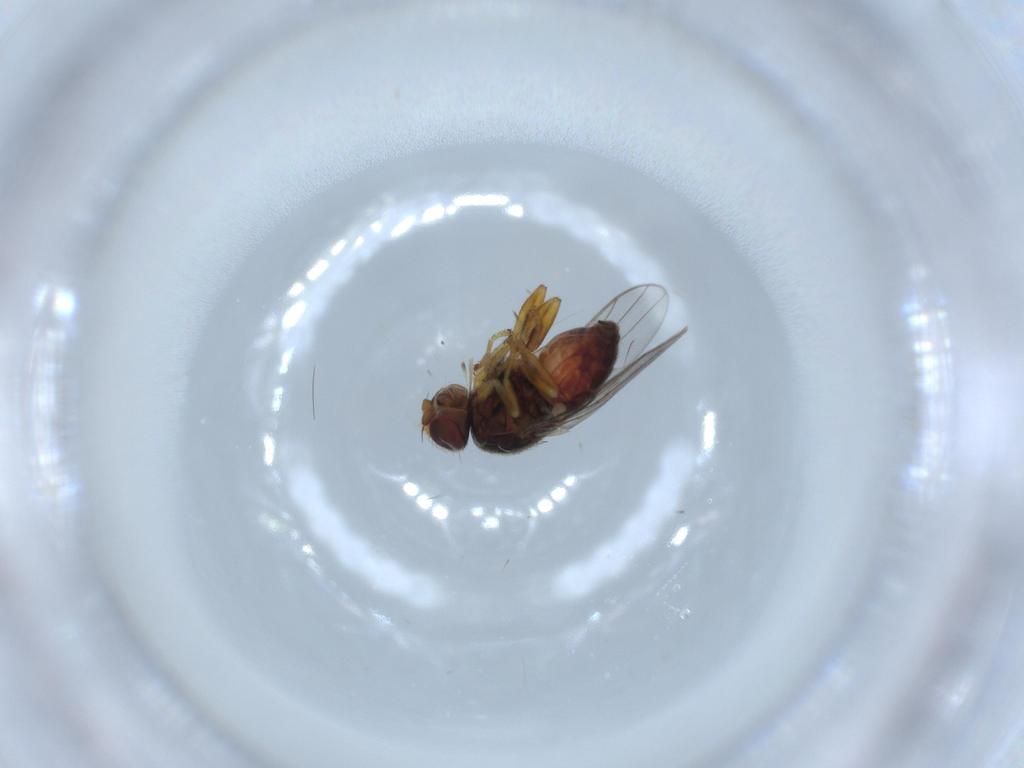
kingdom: Animalia
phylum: Arthropoda
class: Insecta
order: Diptera
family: Chloropidae
